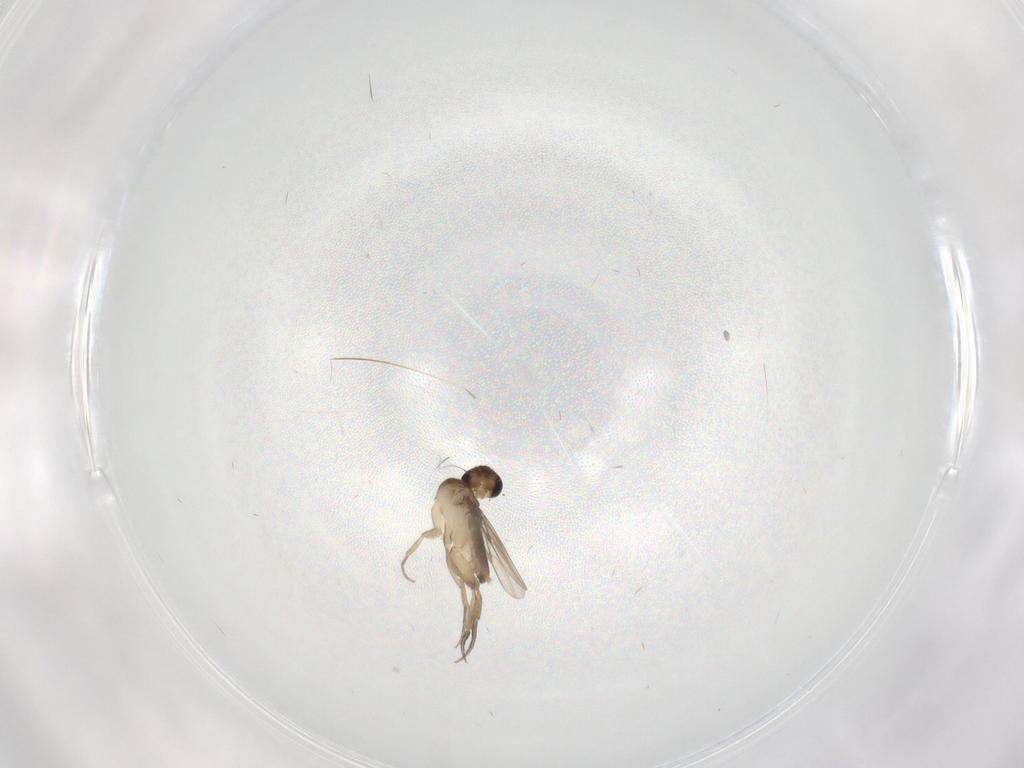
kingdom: Animalia
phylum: Arthropoda
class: Insecta
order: Diptera
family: Phoridae
